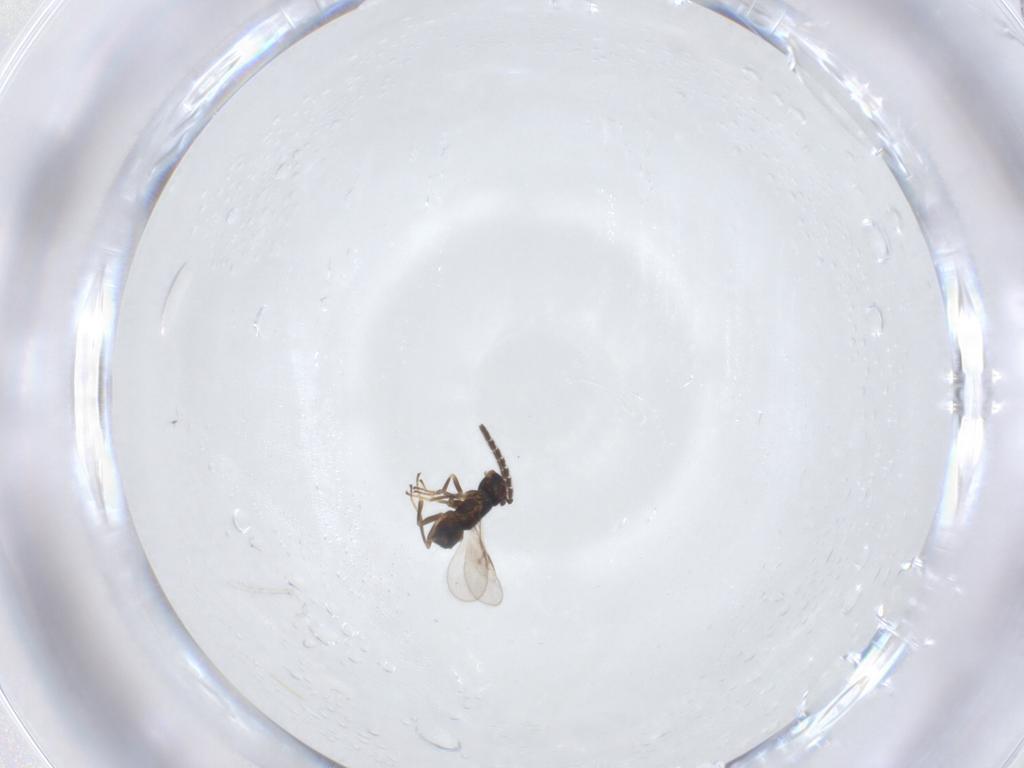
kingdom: Animalia
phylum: Arthropoda
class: Insecta
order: Hymenoptera
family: Encyrtidae
